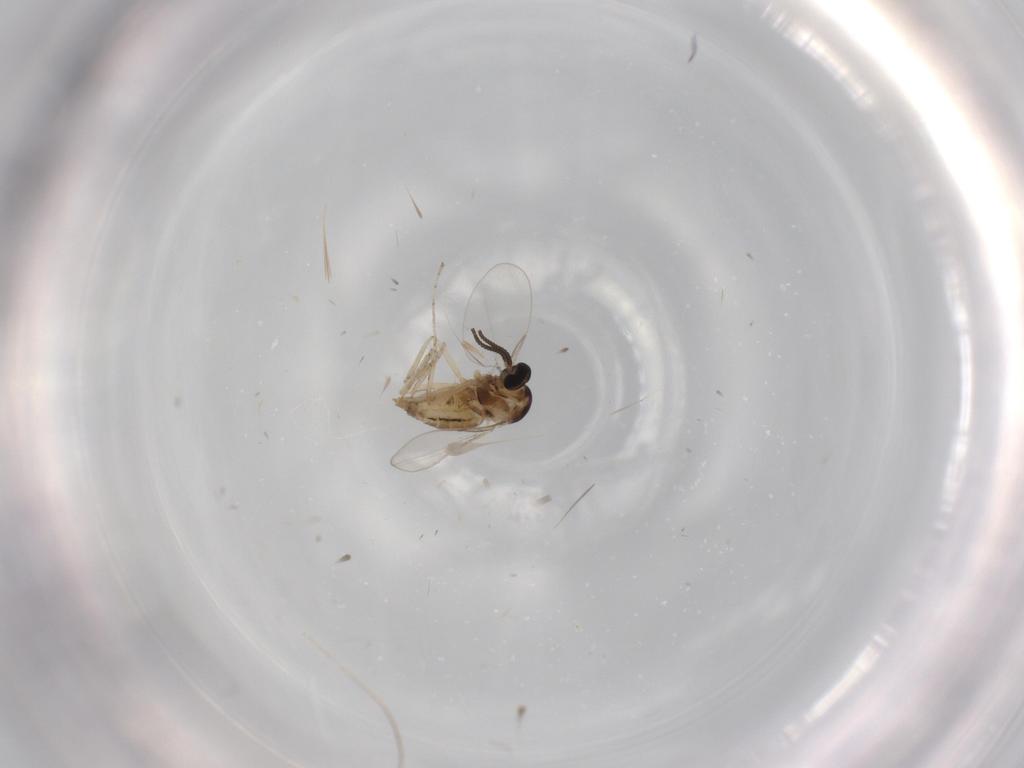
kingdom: Animalia
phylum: Arthropoda
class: Insecta
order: Diptera
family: Cecidomyiidae
